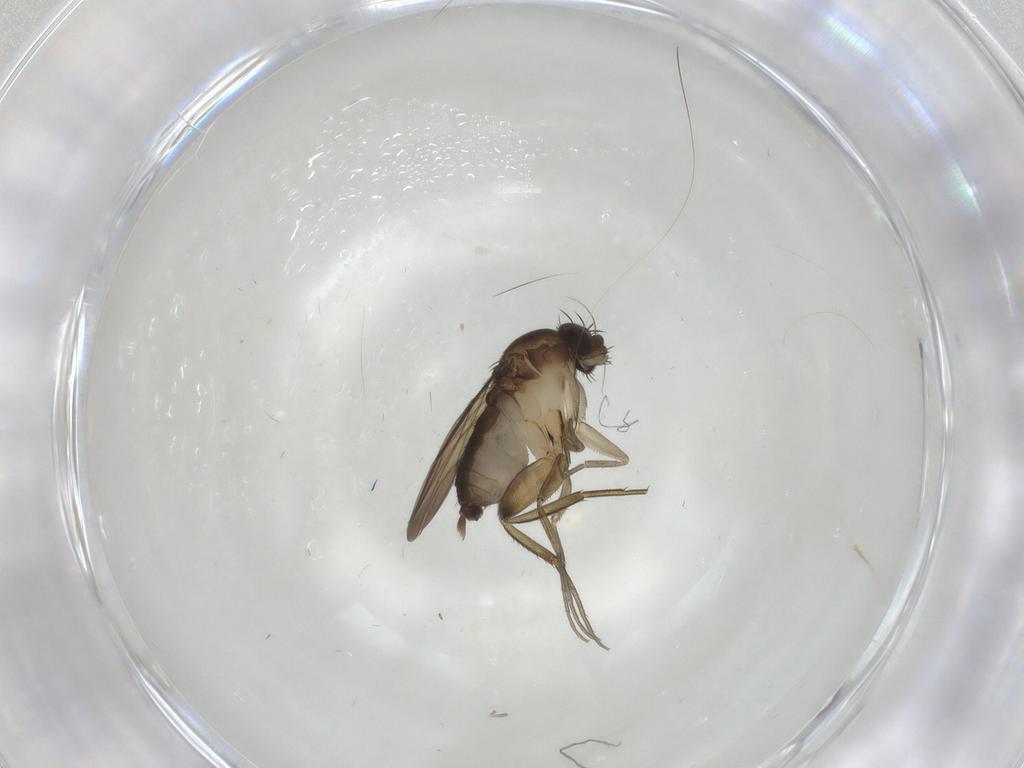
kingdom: Animalia
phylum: Arthropoda
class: Insecta
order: Diptera
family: Phoridae
